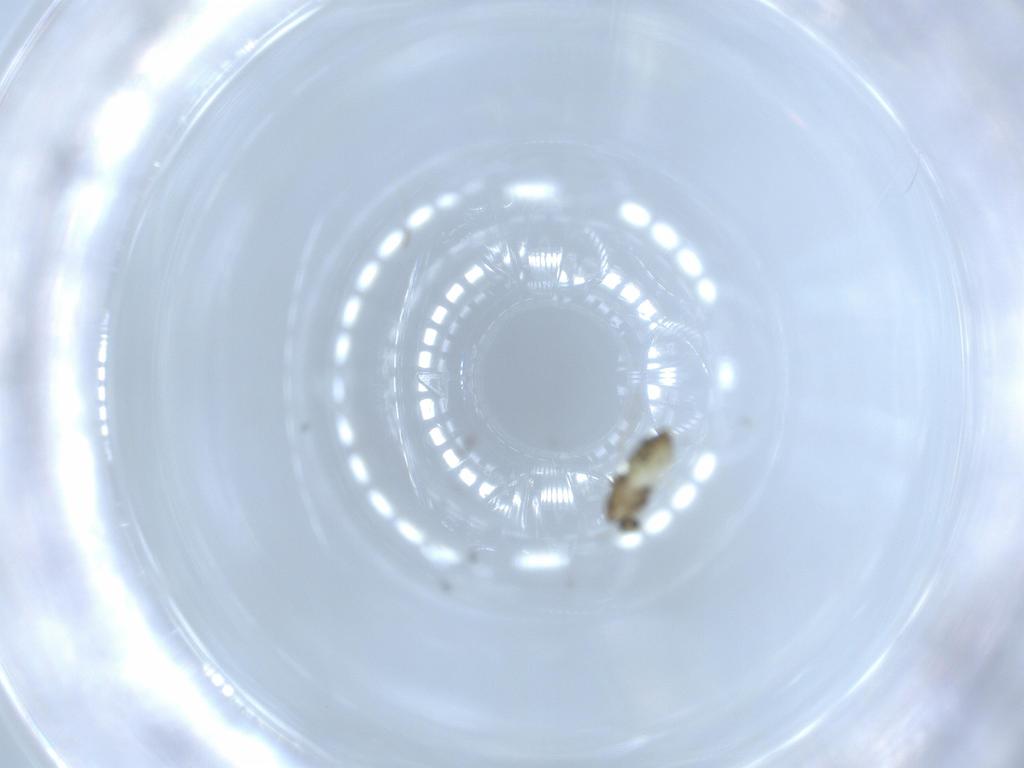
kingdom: Animalia
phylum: Arthropoda
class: Insecta
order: Diptera
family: Chironomidae
